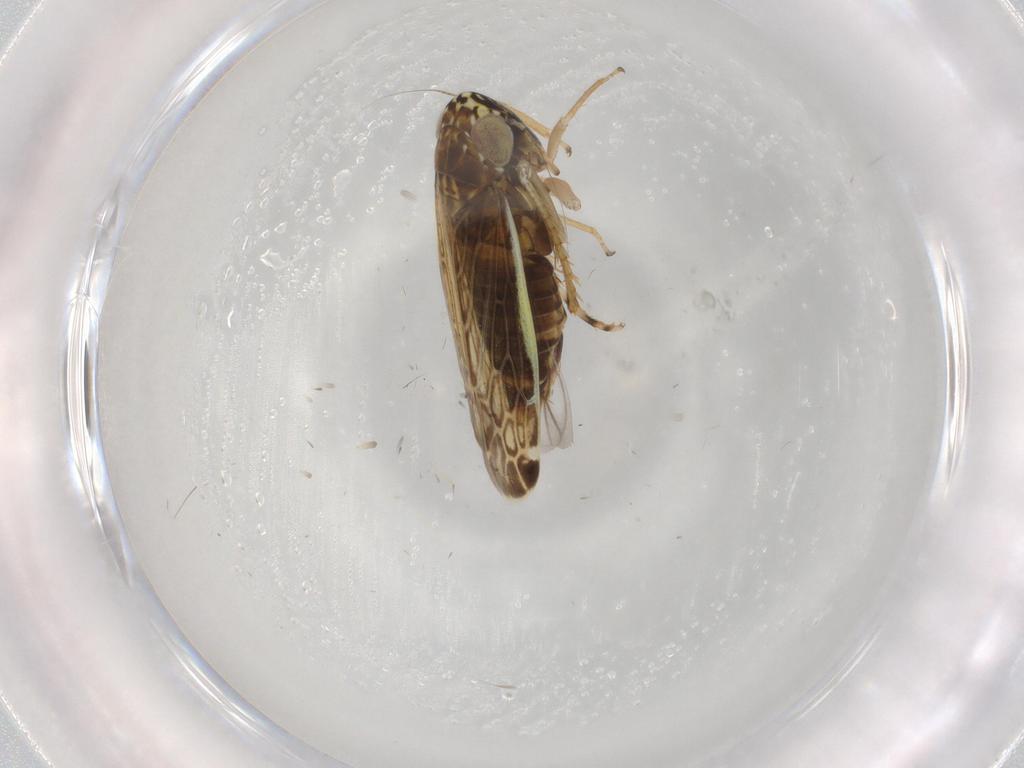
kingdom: Animalia
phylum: Arthropoda
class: Insecta
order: Hemiptera
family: Cicadellidae
